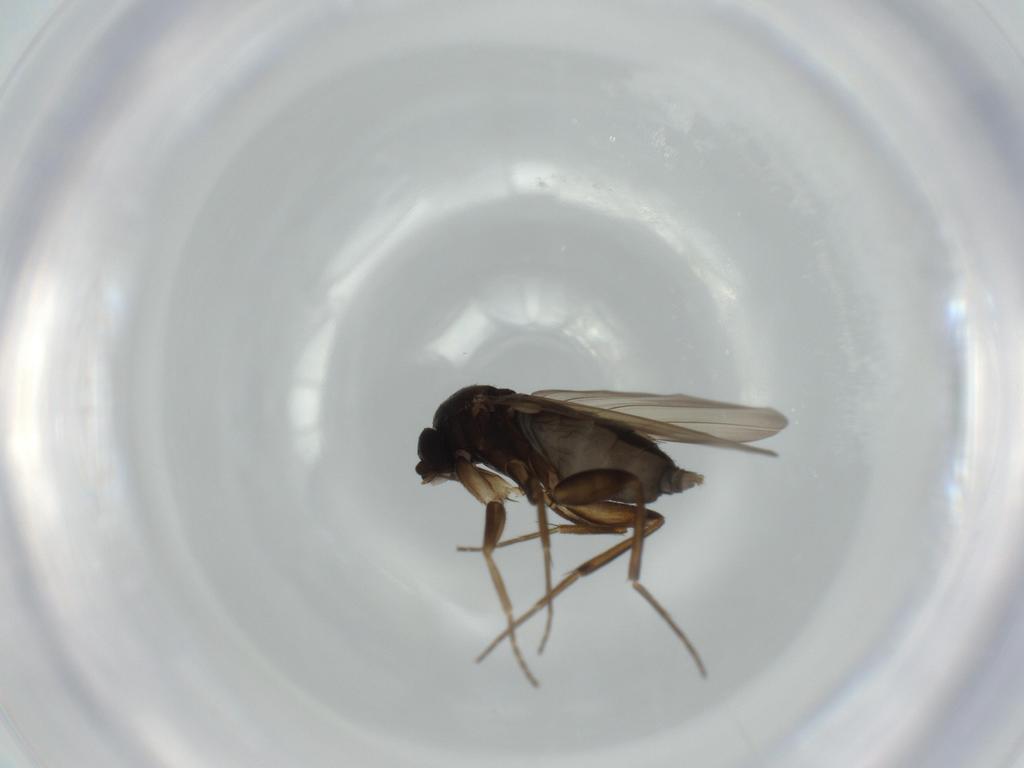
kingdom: Animalia
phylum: Arthropoda
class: Insecta
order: Diptera
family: Phoridae
